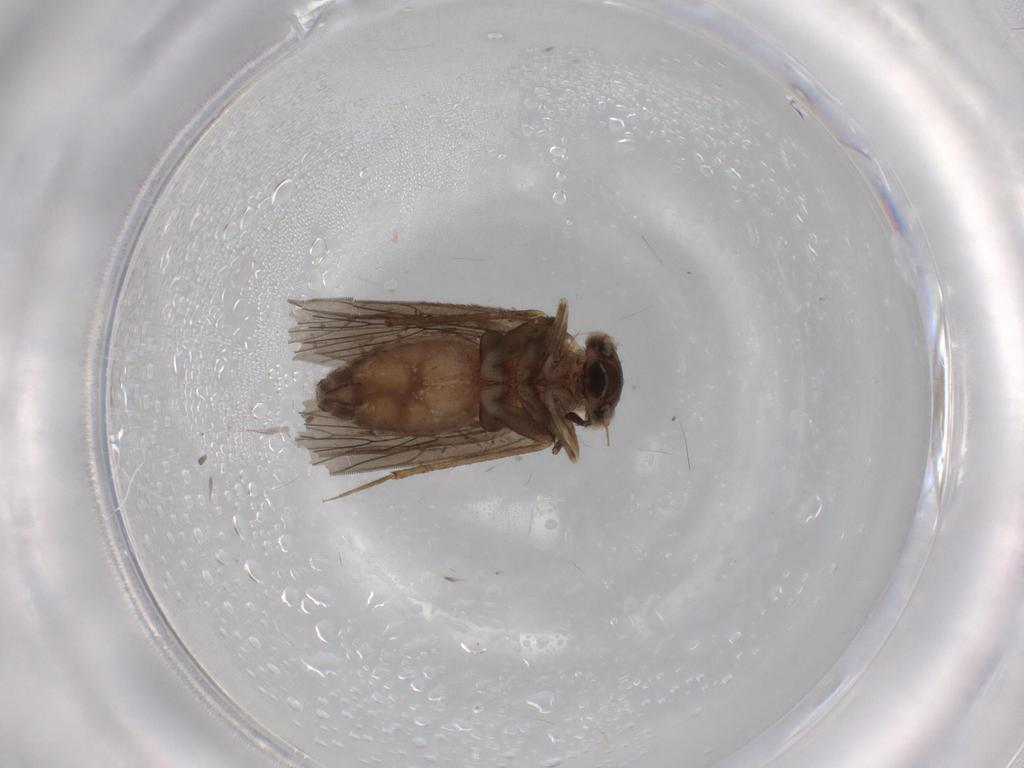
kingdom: Animalia
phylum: Arthropoda
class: Insecta
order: Psocodea
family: Lepidopsocidae
